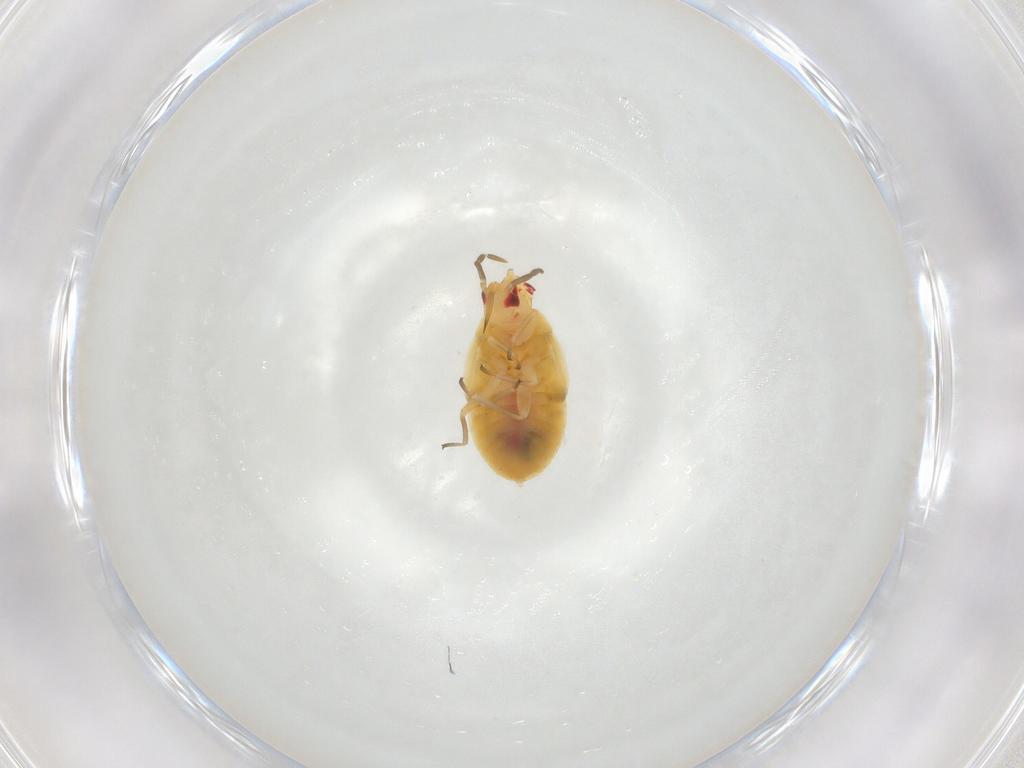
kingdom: Animalia
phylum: Arthropoda
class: Insecta
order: Hemiptera
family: Anthocoridae
